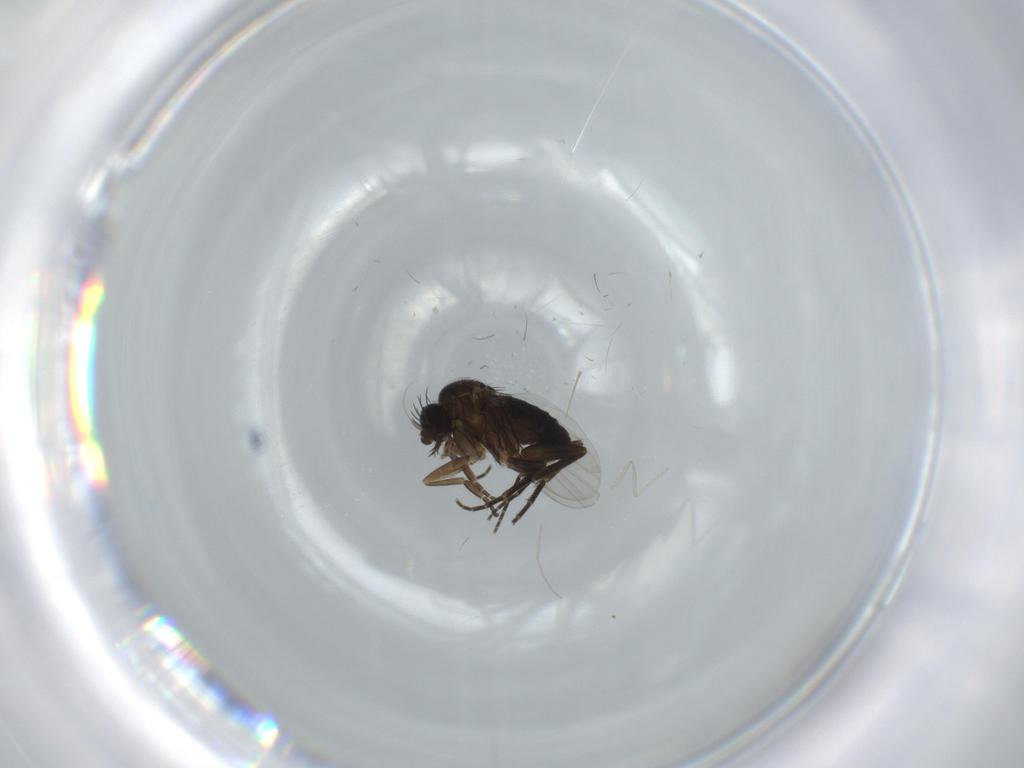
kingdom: Animalia
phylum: Arthropoda
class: Insecta
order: Diptera
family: Phoridae
